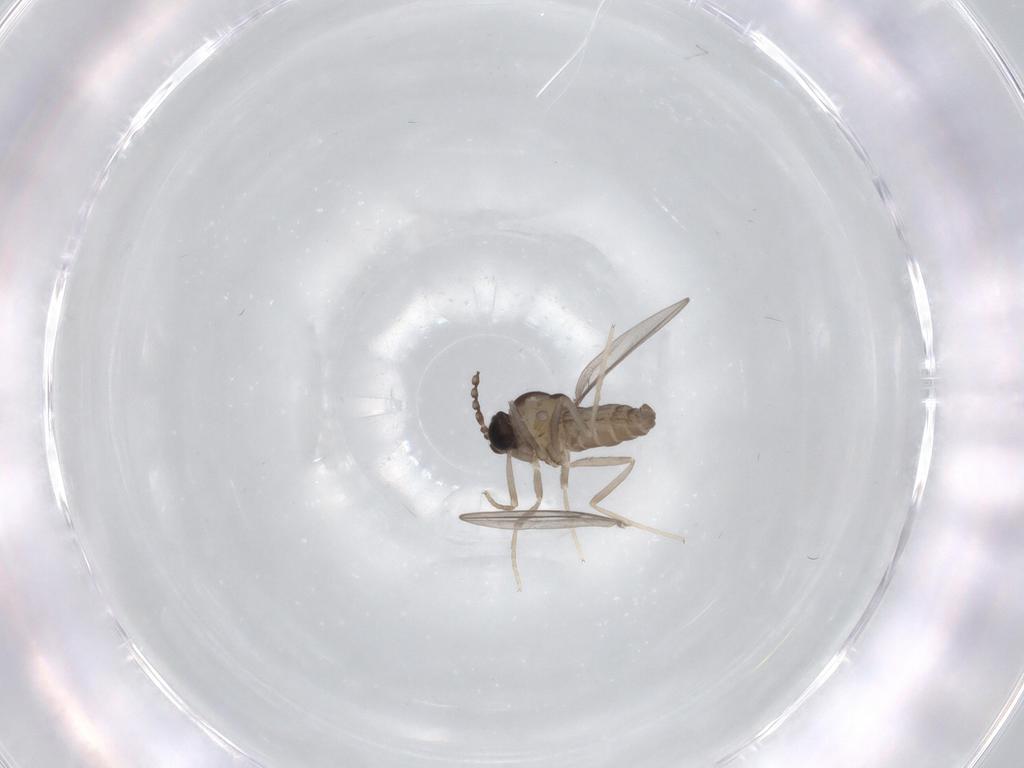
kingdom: Animalia
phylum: Arthropoda
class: Insecta
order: Diptera
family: Cecidomyiidae
